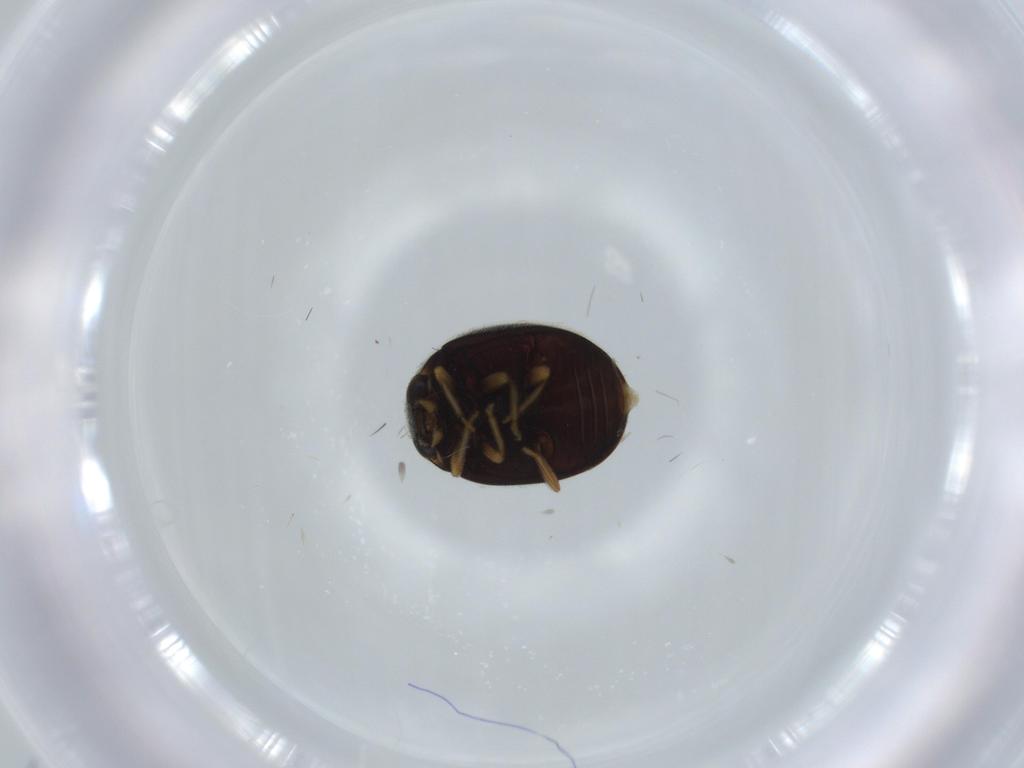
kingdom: Animalia
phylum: Arthropoda
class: Insecta
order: Coleoptera
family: Coccinellidae
